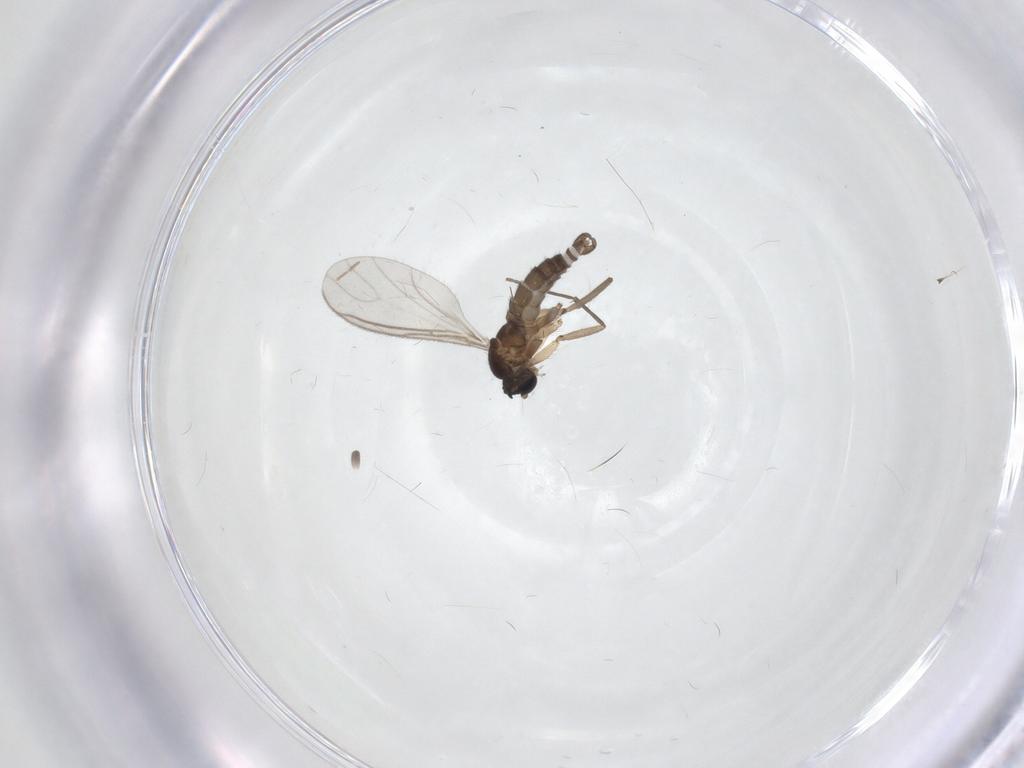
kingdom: Animalia
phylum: Arthropoda
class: Insecta
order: Diptera
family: Sciaridae
